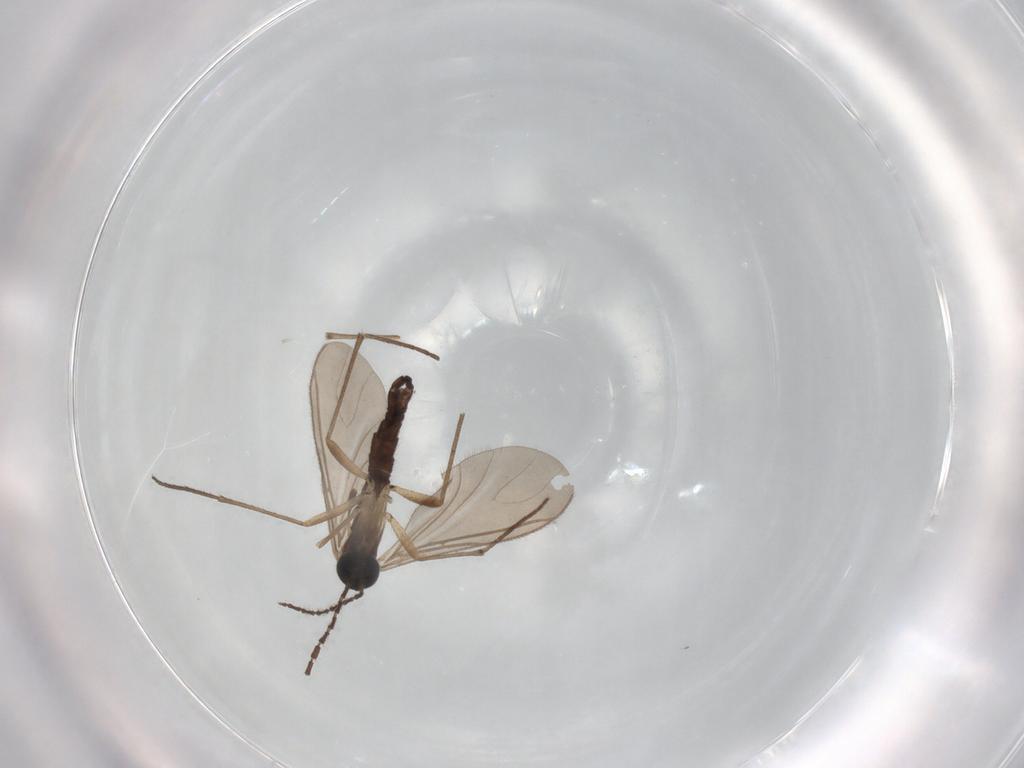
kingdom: Animalia
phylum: Arthropoda
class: Insecta
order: Diptera
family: Sciaridae
